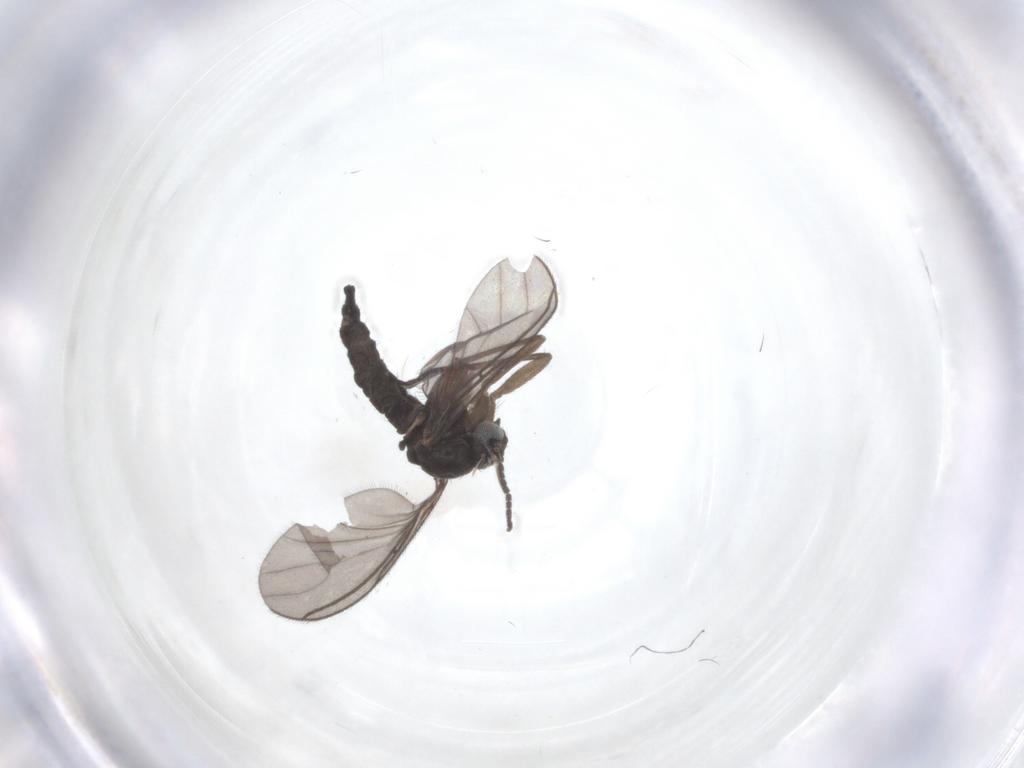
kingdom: Animalia
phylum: Arthropoda
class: Insecta
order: Diptera
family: Sciaridae
